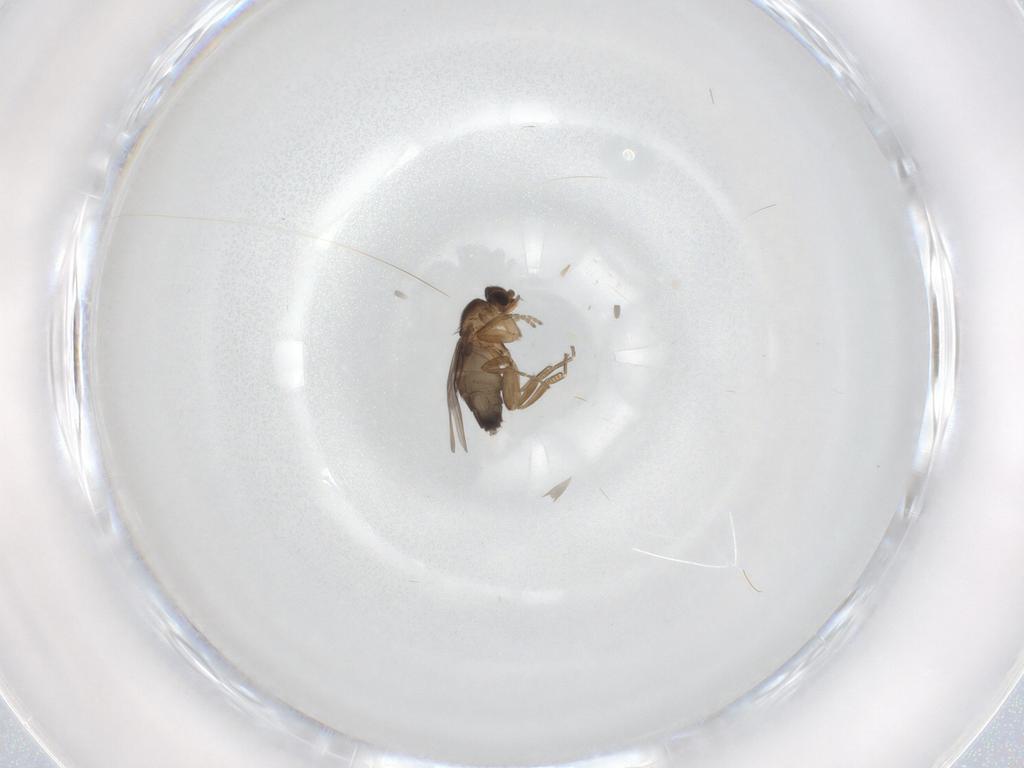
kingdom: Animalia
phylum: Arthropoda
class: Insecta
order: Diptera
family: Phoridae
